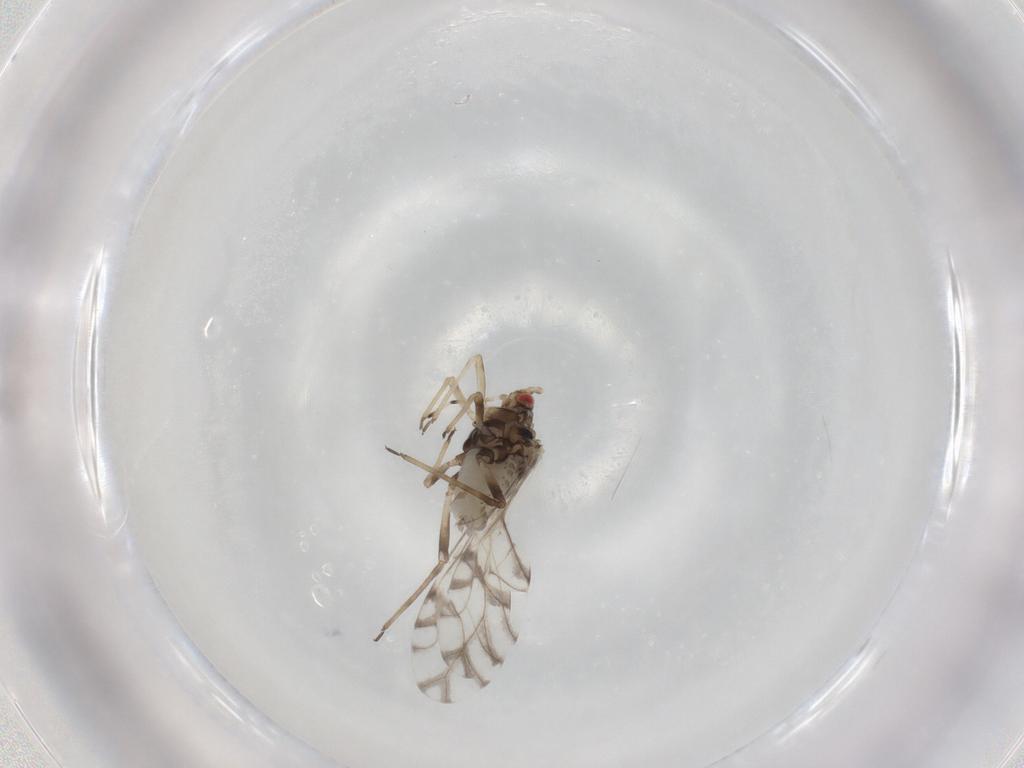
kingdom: Animalia
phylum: Arthropoda
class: Insecta
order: Hemiptera
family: Aphididae
